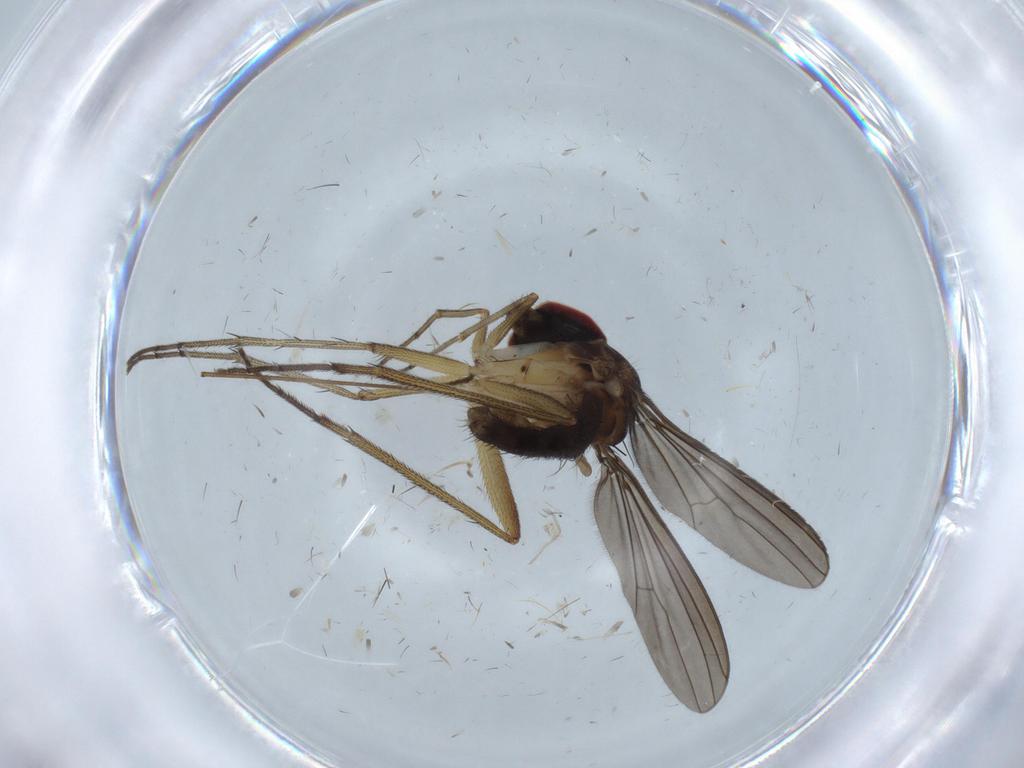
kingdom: Animalia
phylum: Arthropoda
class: Insecta
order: Diptera
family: Dolichopodidae
